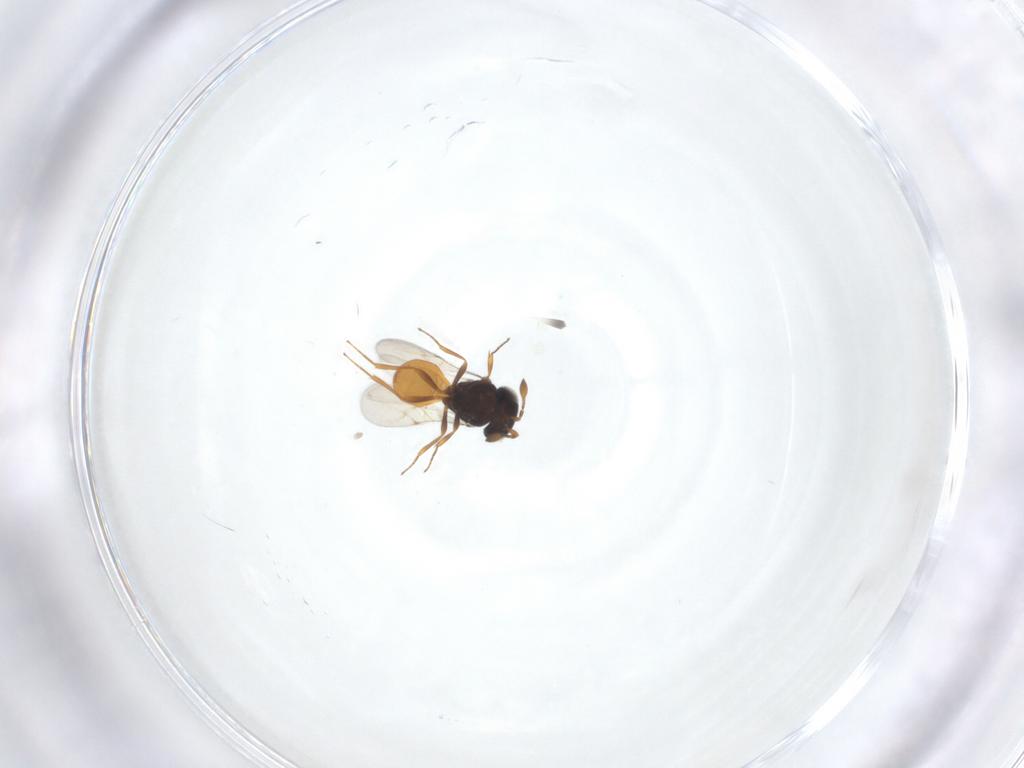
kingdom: Animalia
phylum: Arthropoda
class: Insecta
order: Hymenoptera
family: Scelionidae
